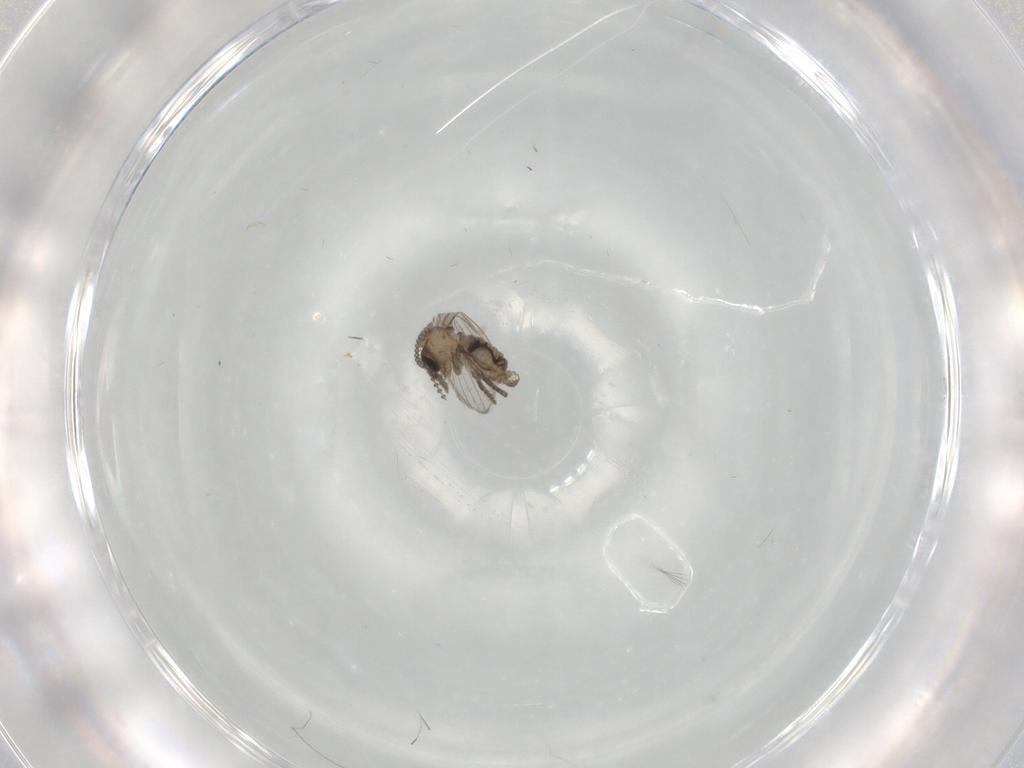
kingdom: Animalia
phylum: Arthropoda
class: Insecta
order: Diptera
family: Psychodidae
